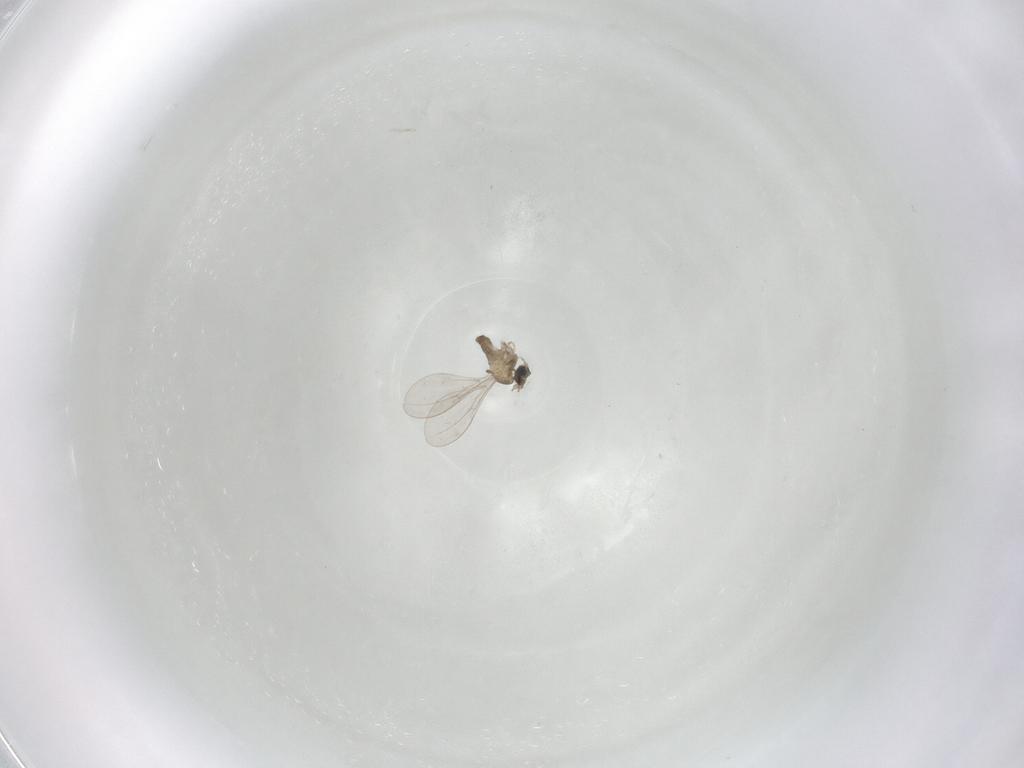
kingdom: Animalia
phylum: Arthropoda
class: Insecta
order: Diptera
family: Cecidomyiidae
